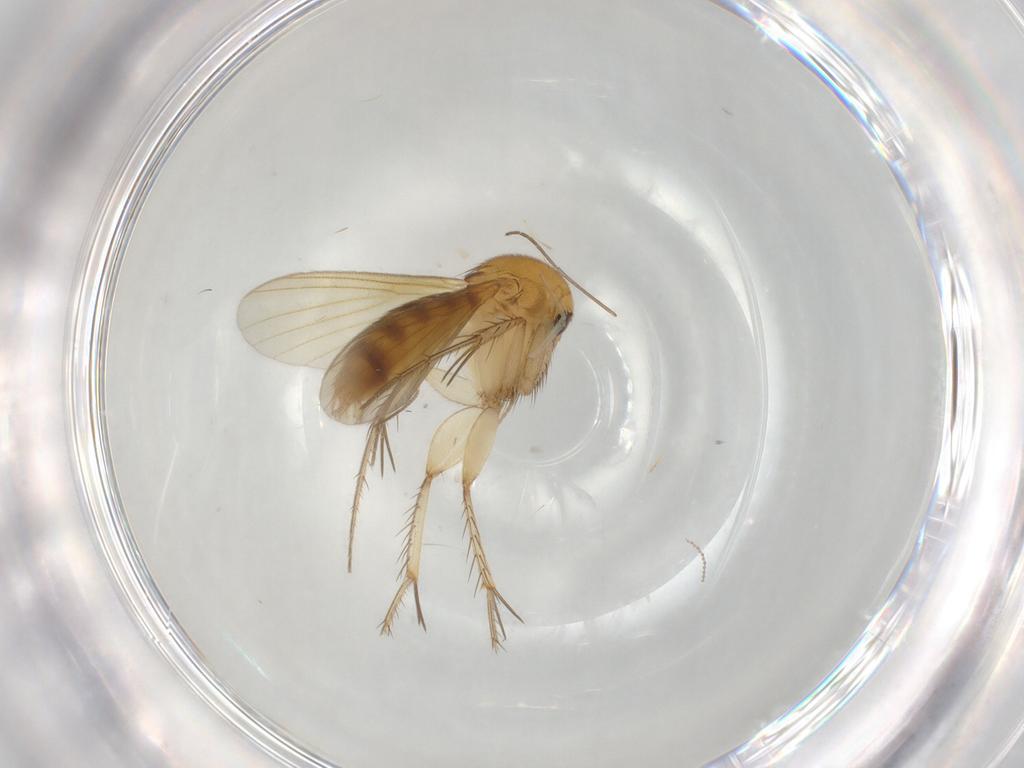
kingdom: Animalia
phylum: Arthropoda
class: Insecta
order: Diptera
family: Mycetophilidae
